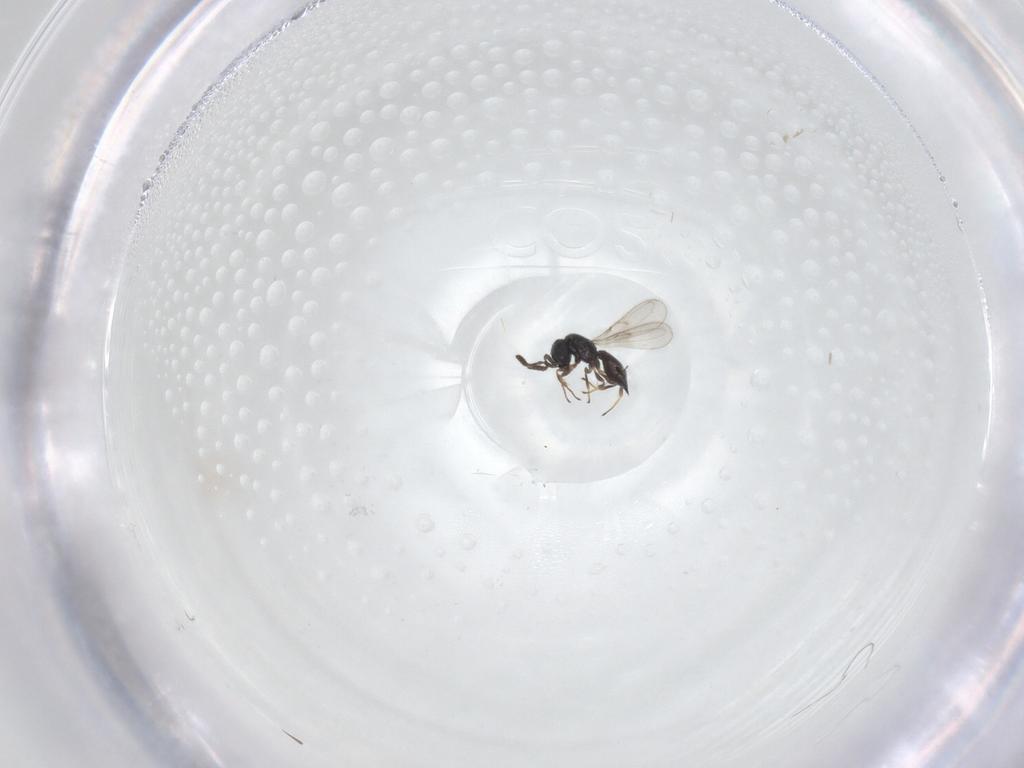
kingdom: Animalia
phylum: Arthropoda
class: Insecta
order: Hymenoptera
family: Scelionidae
